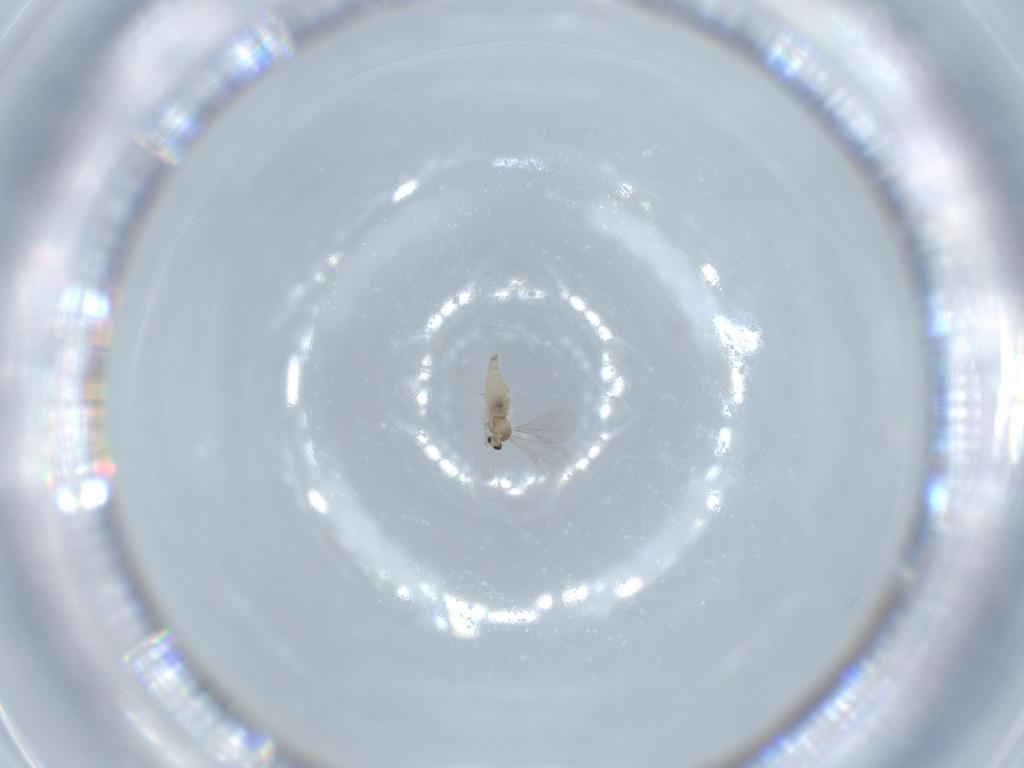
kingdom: Animalia
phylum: Arthropoda
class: Insecta
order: Diptera
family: Cecidomyiidae
